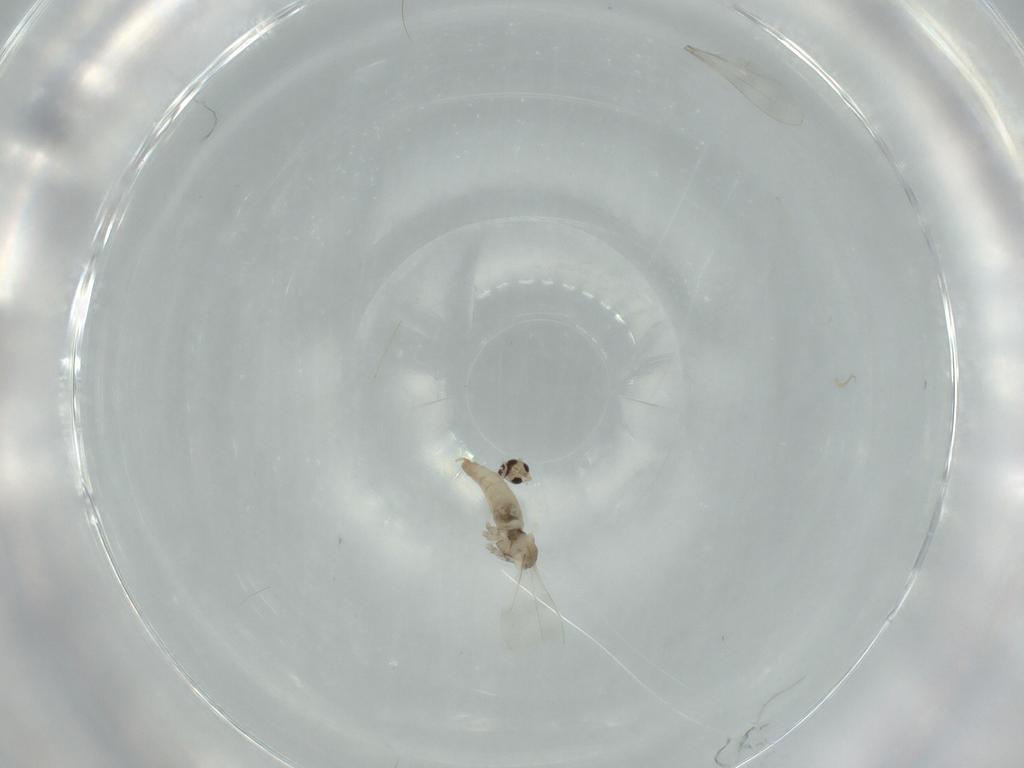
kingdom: Animalia
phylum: Arthropoda
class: Insecta
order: Diptera
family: Cecidomyiidae
